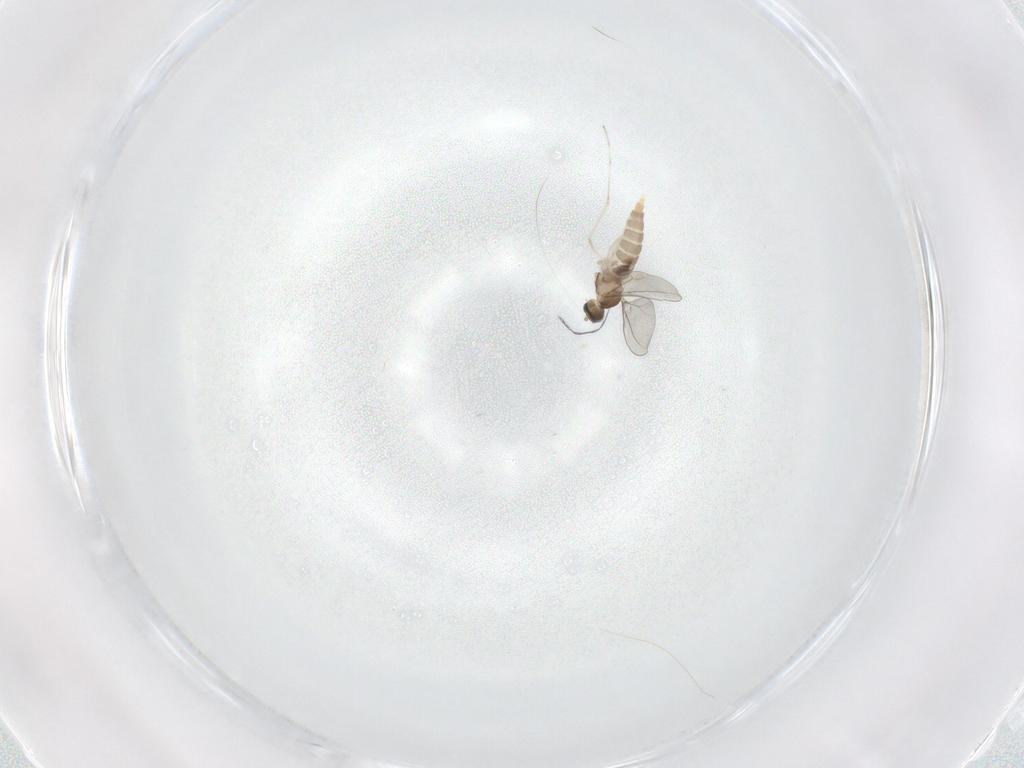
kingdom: Animalia
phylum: Arthropoda
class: Insecta
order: Diptera
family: Cecidomyiidae
